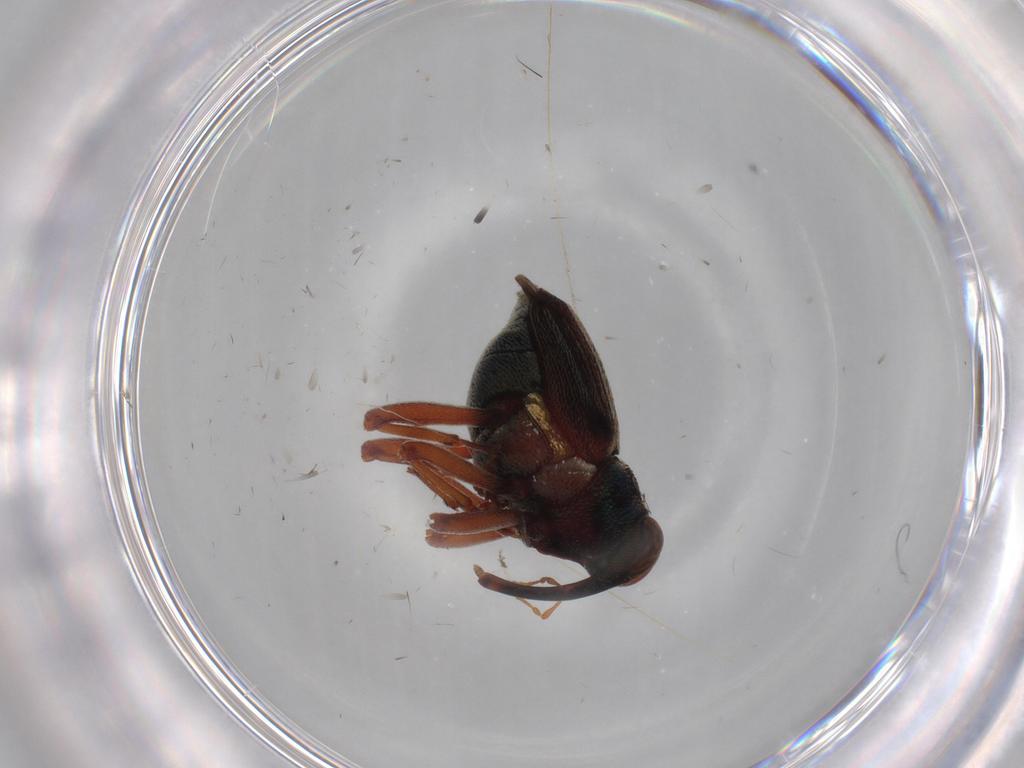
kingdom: Animalia
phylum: Arthropoda
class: Insecta
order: Coleoptera
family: Curculionidae
